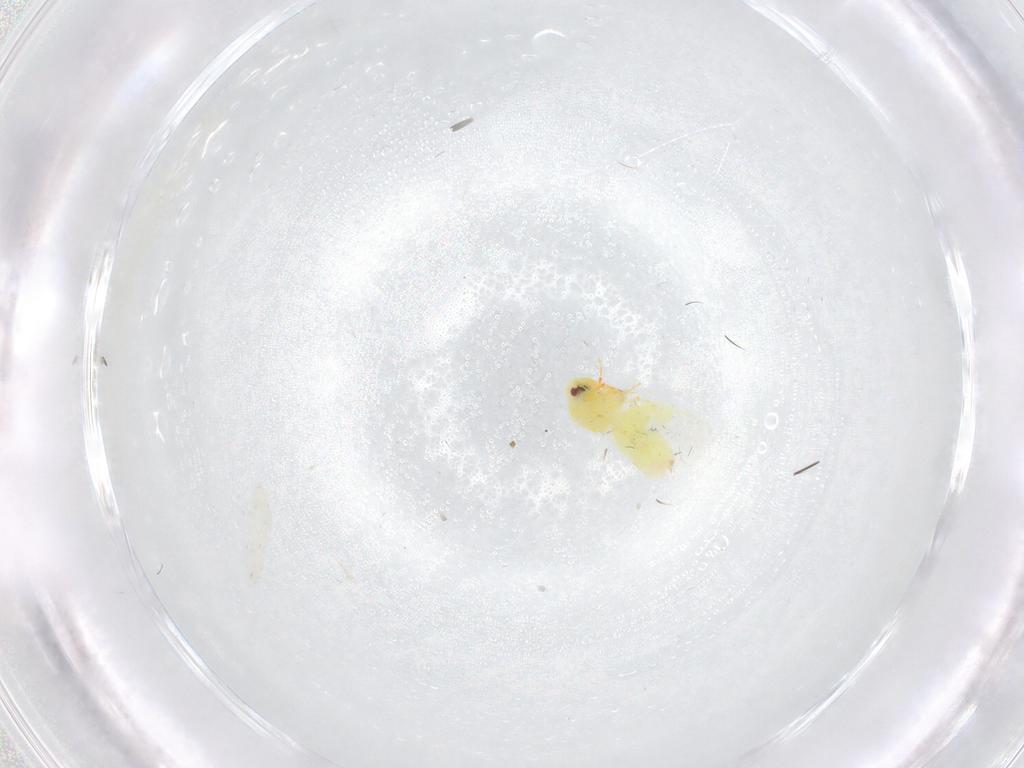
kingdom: Animalia
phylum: Arthropoda
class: Insecta
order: Hemiptera
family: Aleyrodidae
